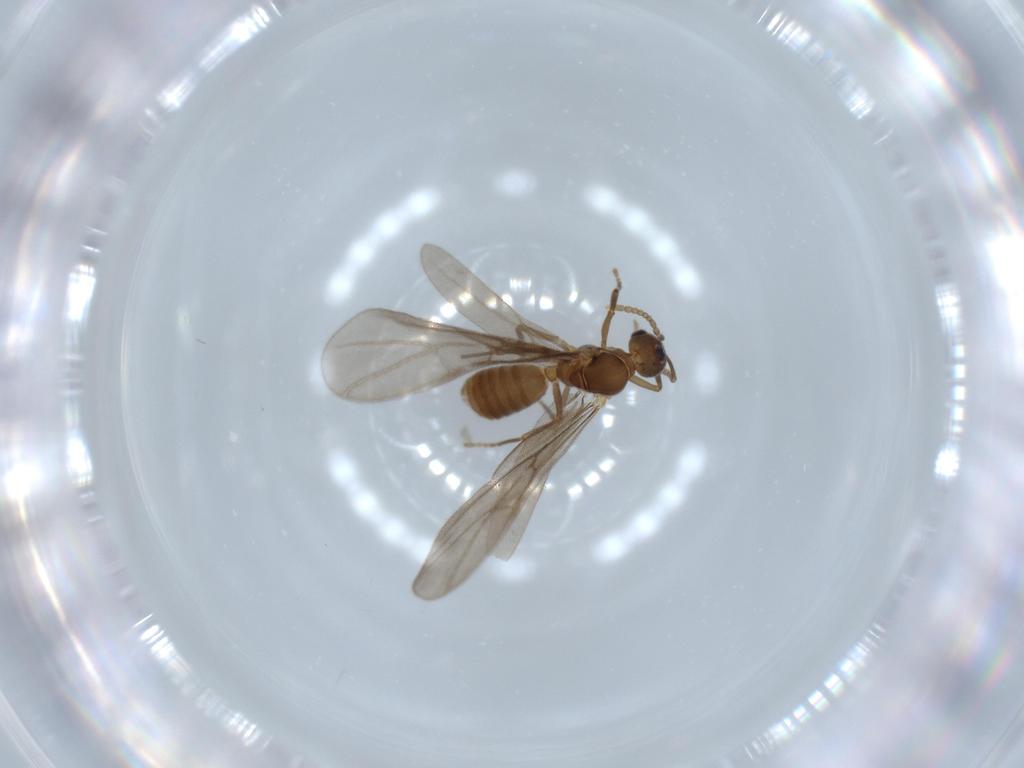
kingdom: Animalia
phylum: Arthropoda
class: Insecta
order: Hymenoptera
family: Formicidae
